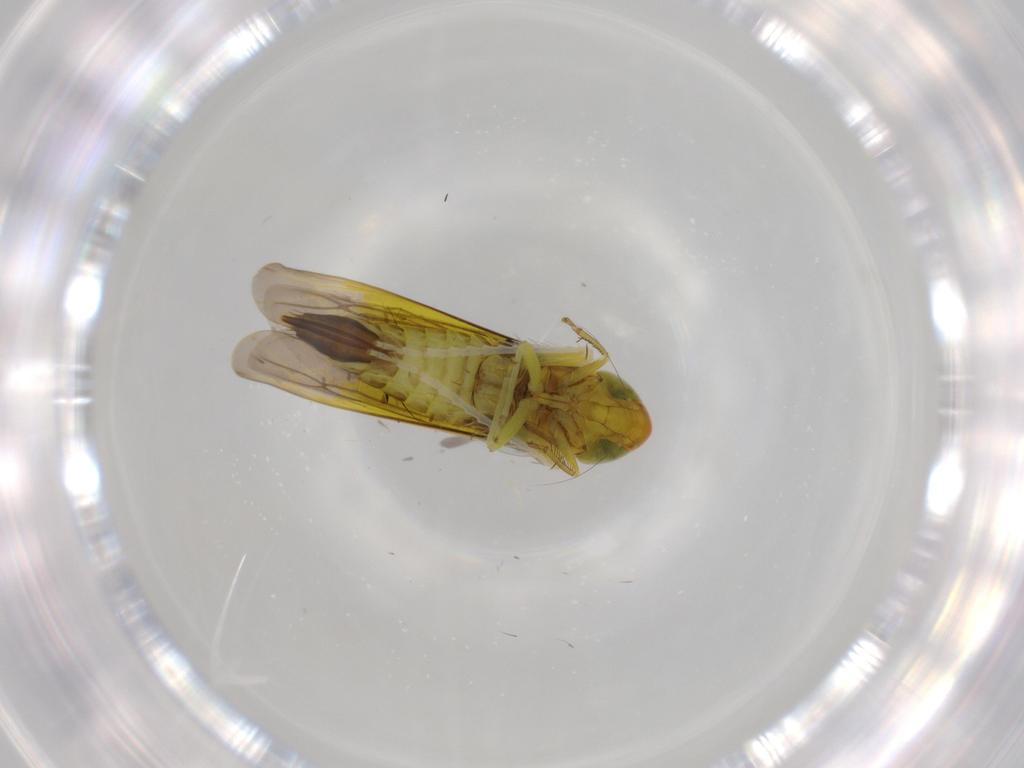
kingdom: Animalia
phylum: Arthropoda
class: Insecta
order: Hemiptera
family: Cicadellidae
